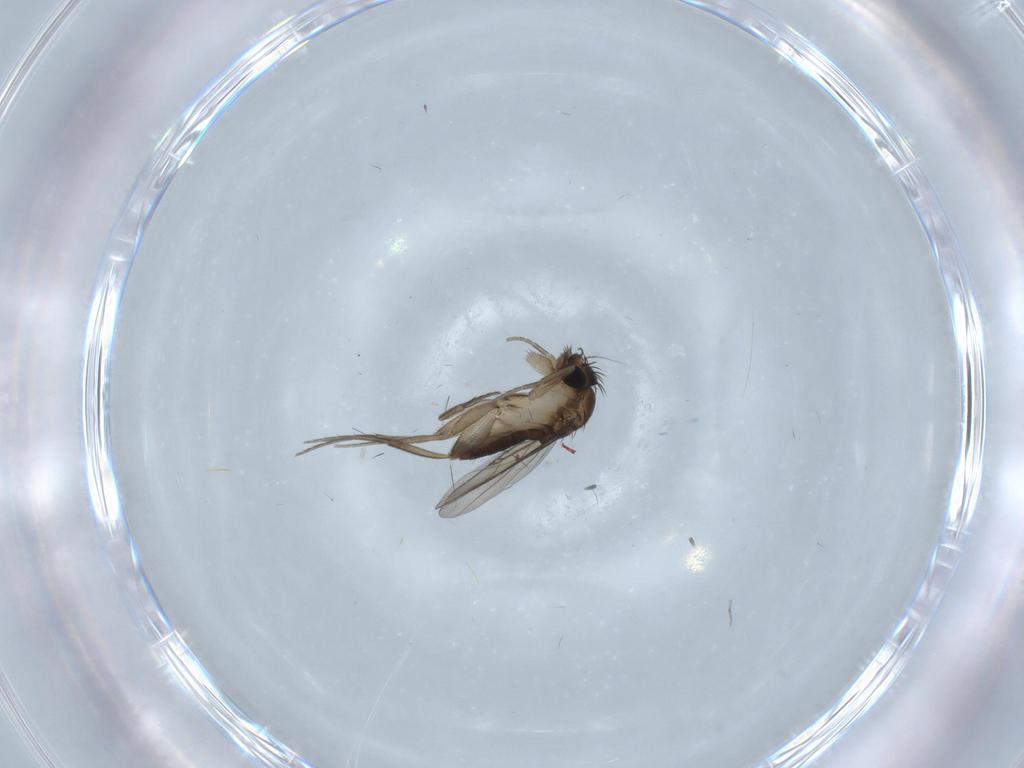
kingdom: Animalia
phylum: Arthropoda
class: Insecta
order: Diptera
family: Phoridae
